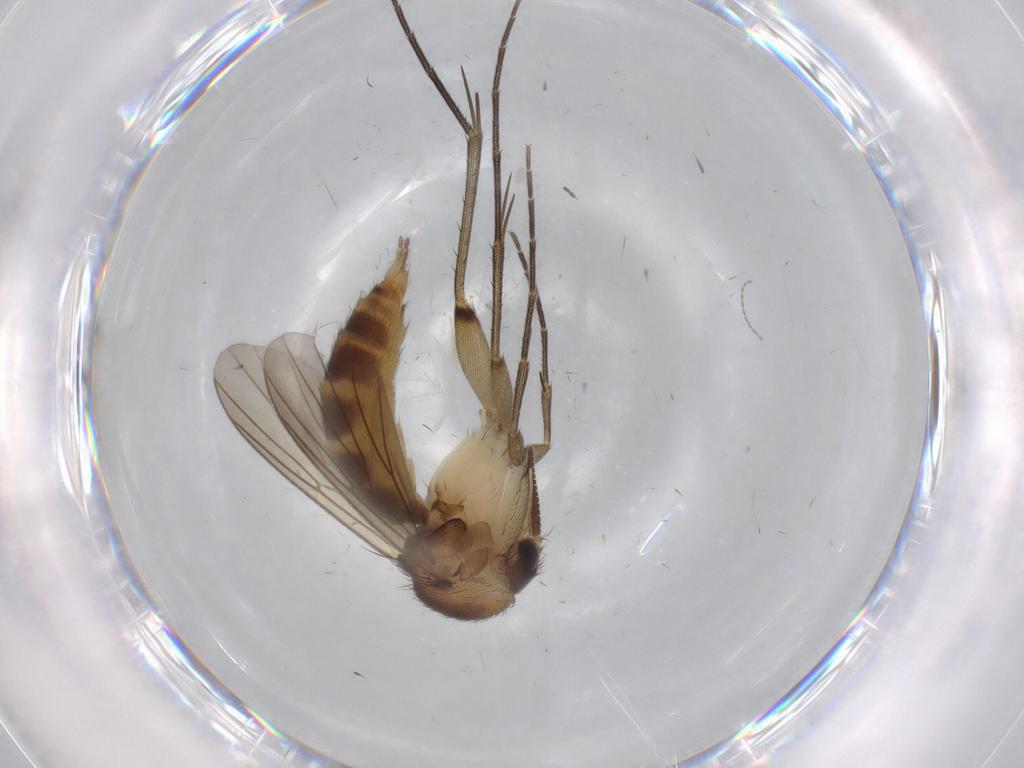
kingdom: Animalia
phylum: Arthropoda
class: Insecta
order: Diptera
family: Mycetophilidae
